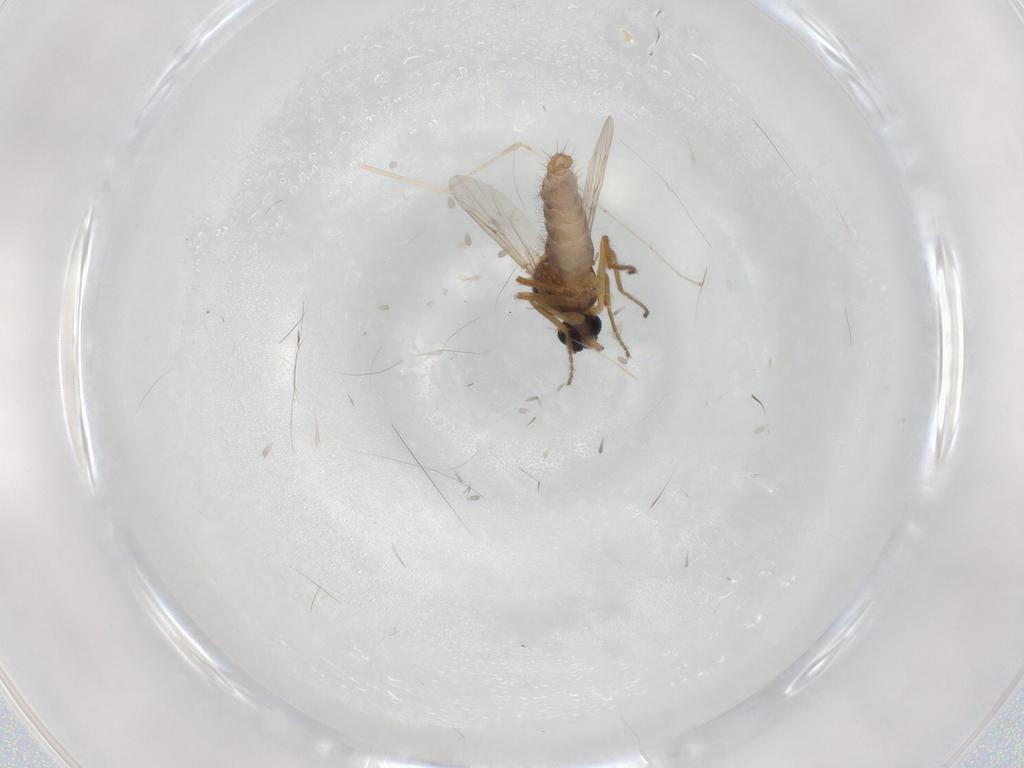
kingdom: Animalia
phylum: Arthropoda
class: Insecta
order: Diptera
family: Ceratopogonidae
